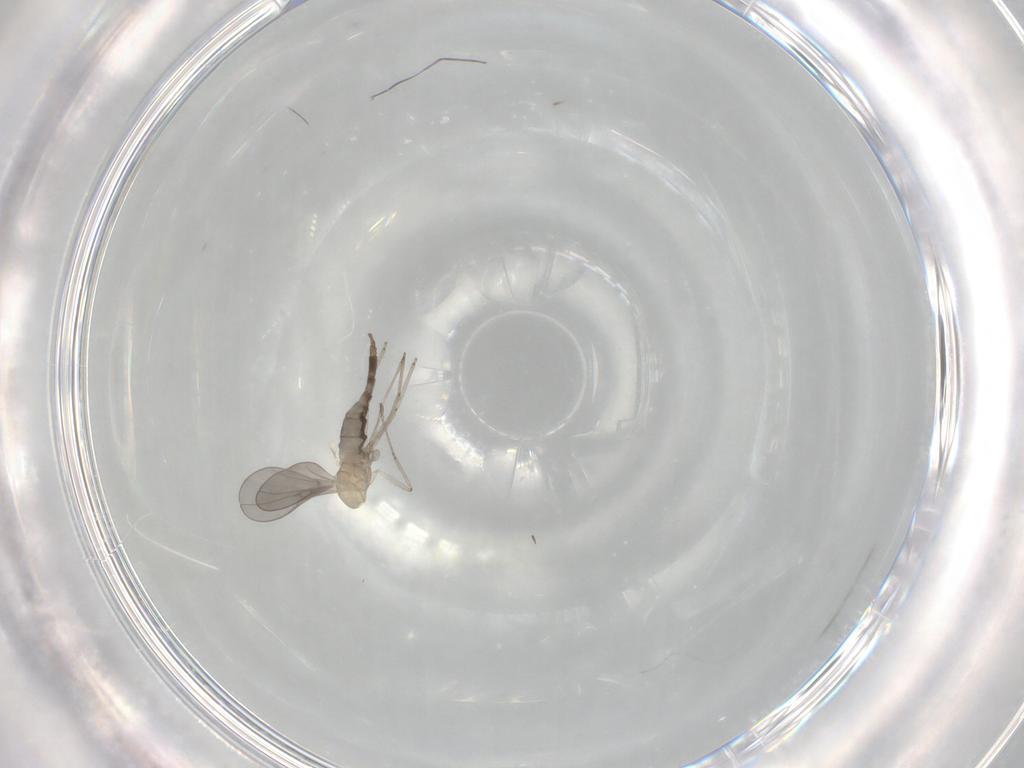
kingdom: Animalia
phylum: Arthropoda
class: Insecta
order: Diptera
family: Cecidomyiidae
